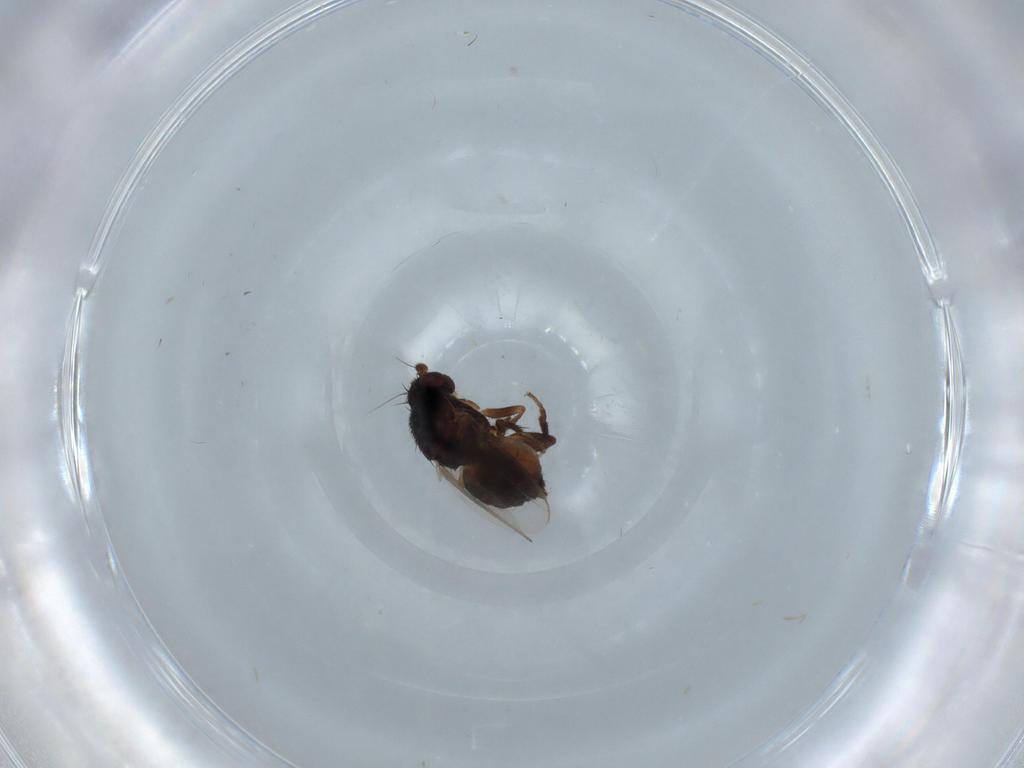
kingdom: Animalia
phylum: Arthropoda
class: Insecta
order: Diptera
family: Sphaeroceridae
